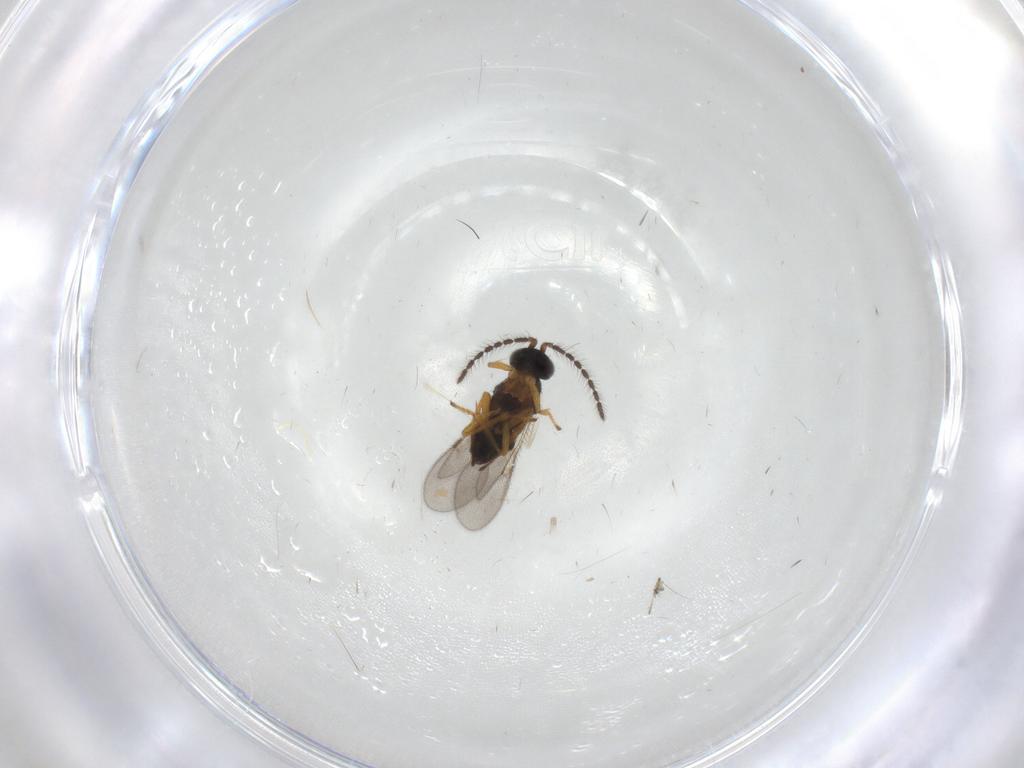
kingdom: Animalia
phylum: Arthropoda
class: Insecta
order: Hymenoptera
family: Encyrtidae
